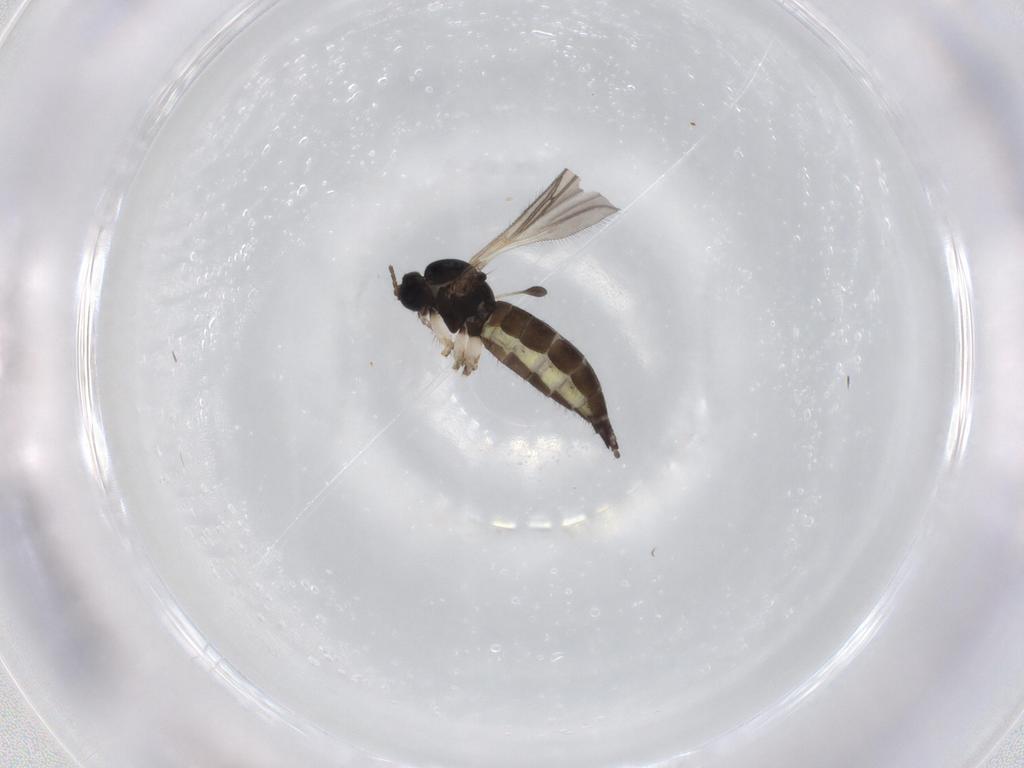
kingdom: Animalia
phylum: Arthropoda
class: Insecta
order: Diptera
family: Sciaridae
